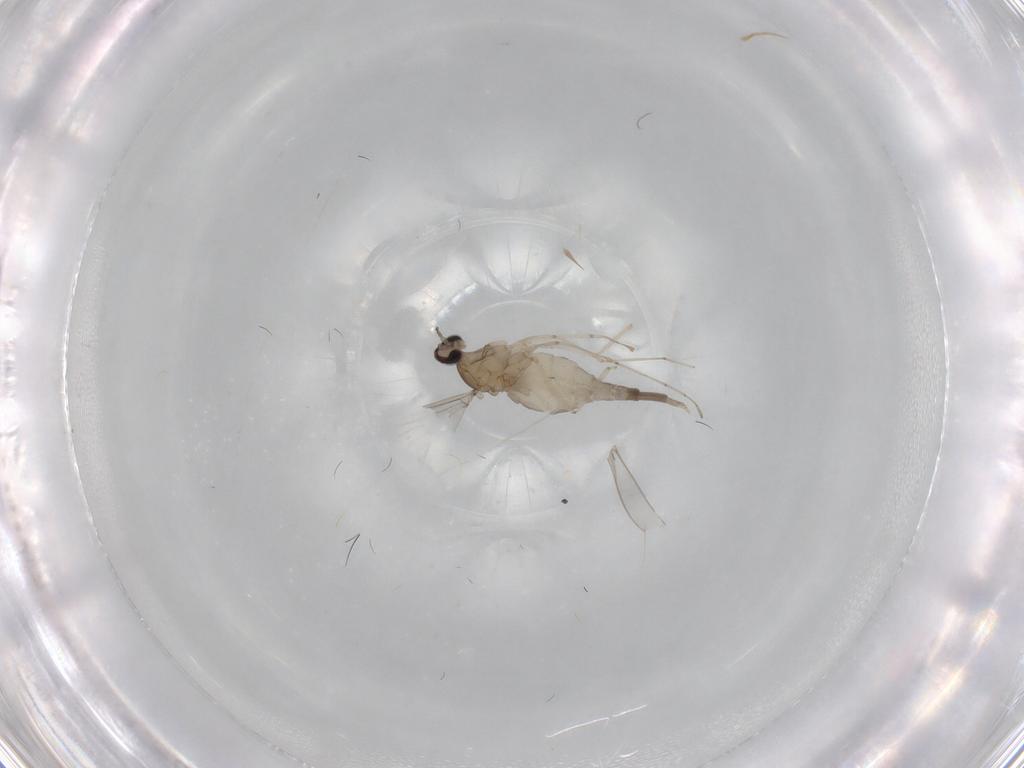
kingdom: Animalia
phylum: Arthropoda
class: Insecta
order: Diptera
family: Cecidomyiidae
